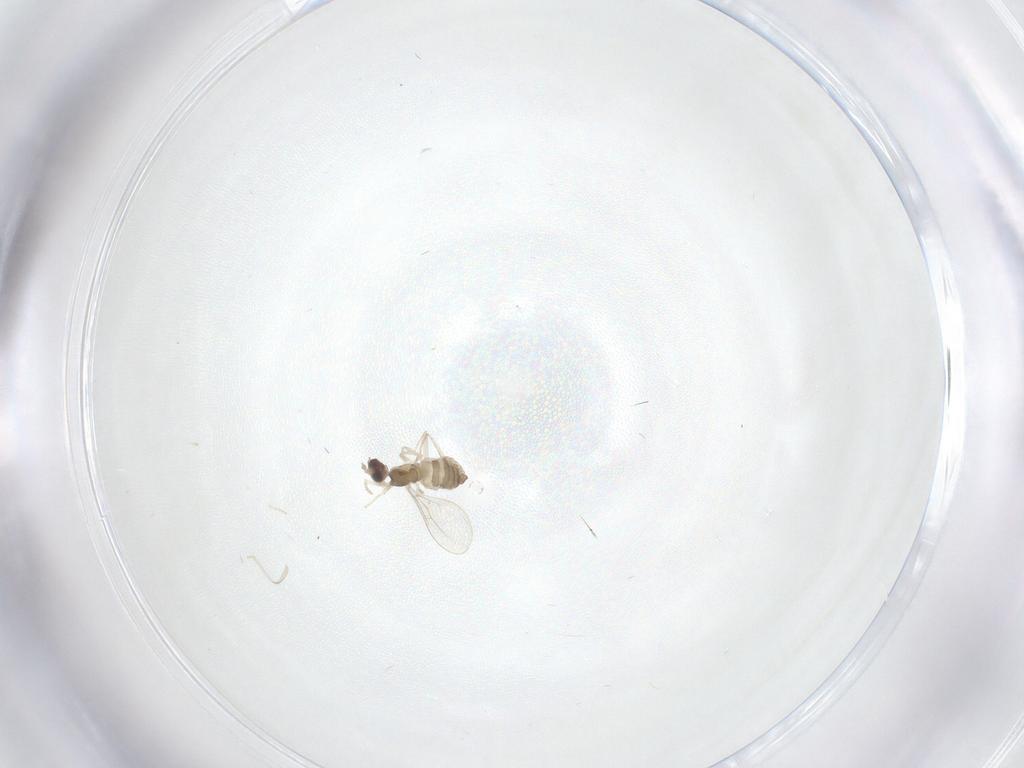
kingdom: Animalia
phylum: Arthropoda
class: Insecta
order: Diptera
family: Cecidomyiidae
